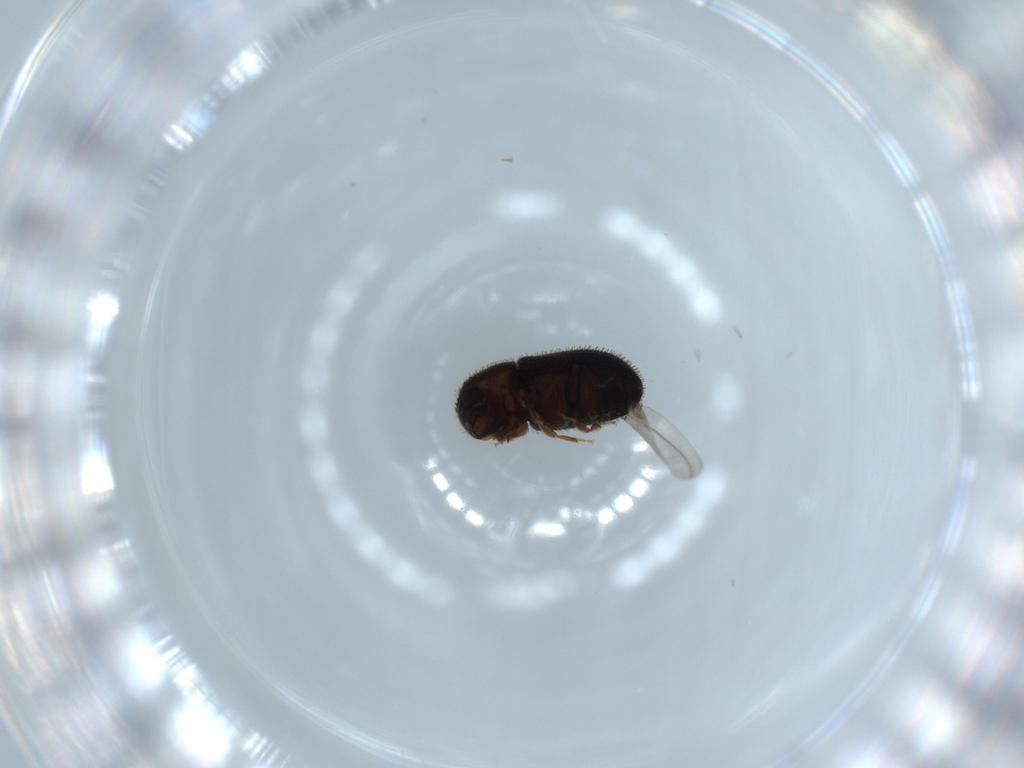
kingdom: Animalia
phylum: Arthropoda
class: Insecta
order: Coleoptera
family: Curculionidae
